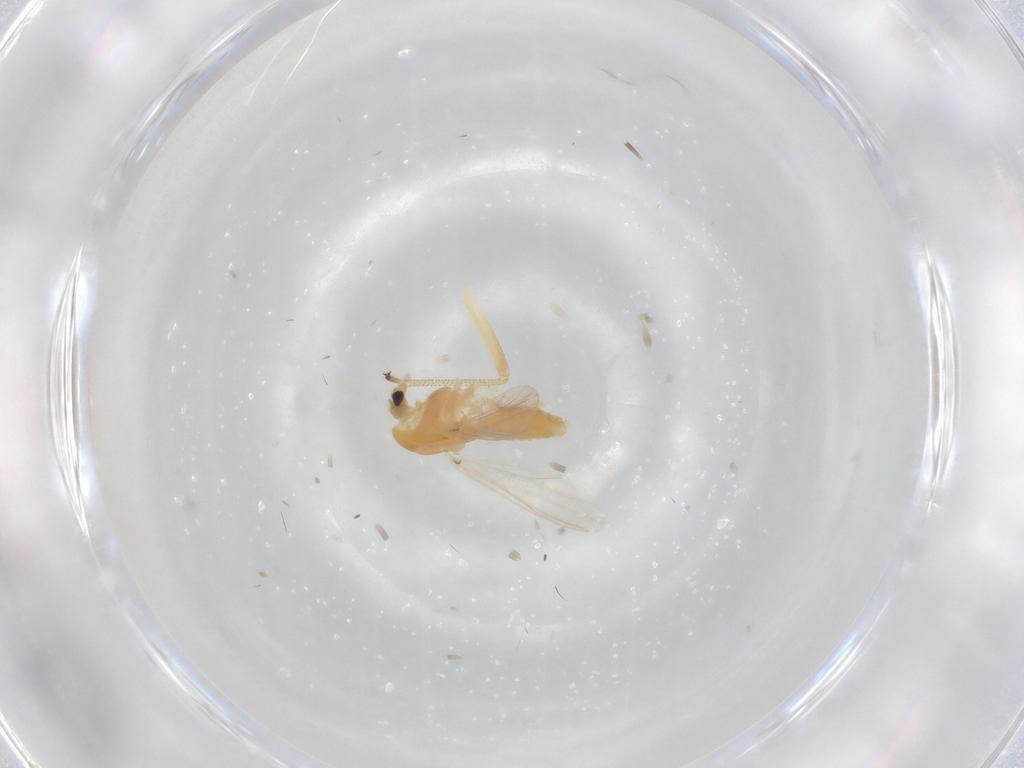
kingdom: Animalia
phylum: Arthropoda
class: Insecta
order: Diptera
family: Chironomidae
